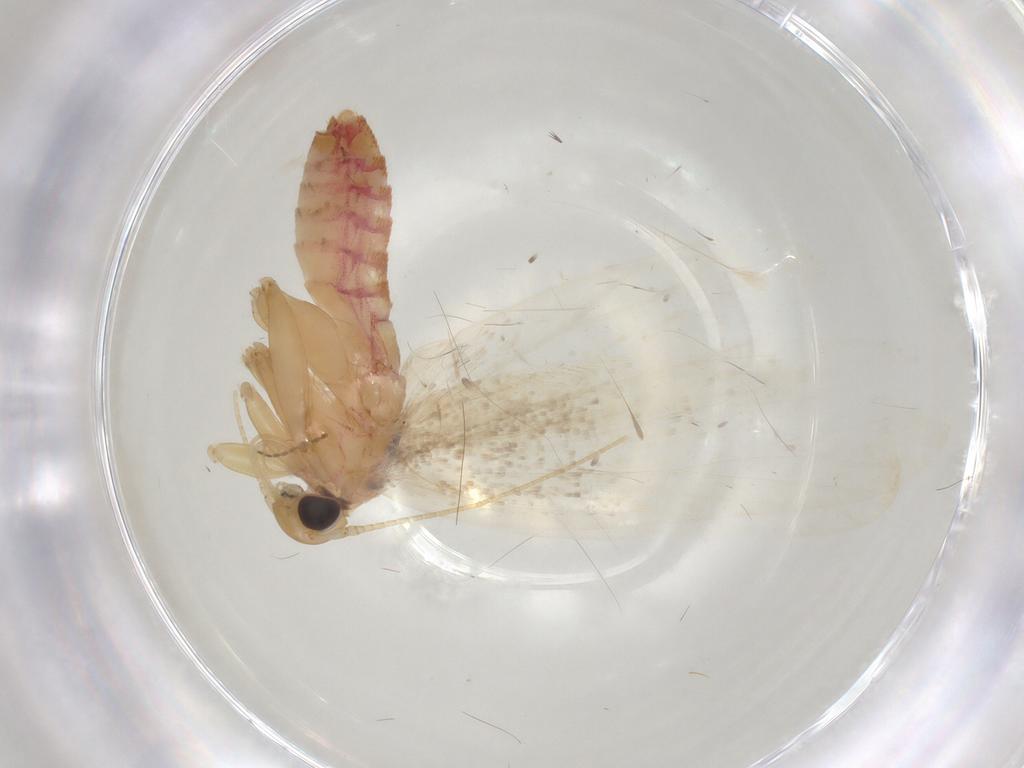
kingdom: Animalia
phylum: Arthropoda
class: Insecta
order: Lepidoptera
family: Lecithoceridae
